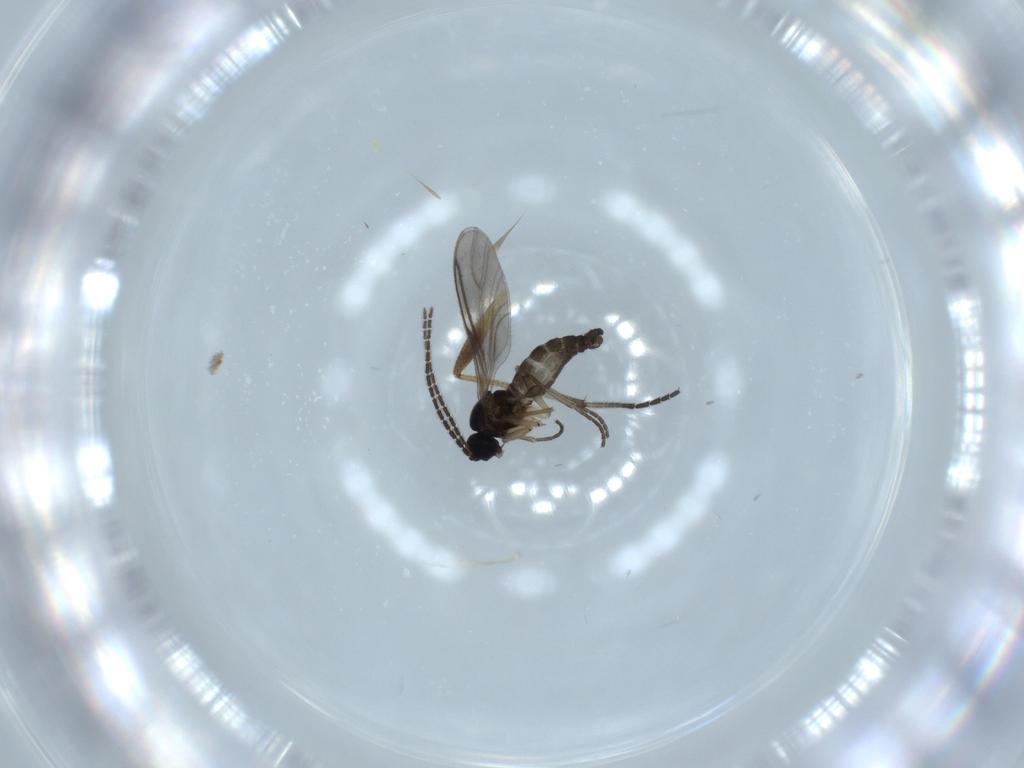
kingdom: Animalia
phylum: Arthropoda
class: Insecta
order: Diptera
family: Sciaridae
